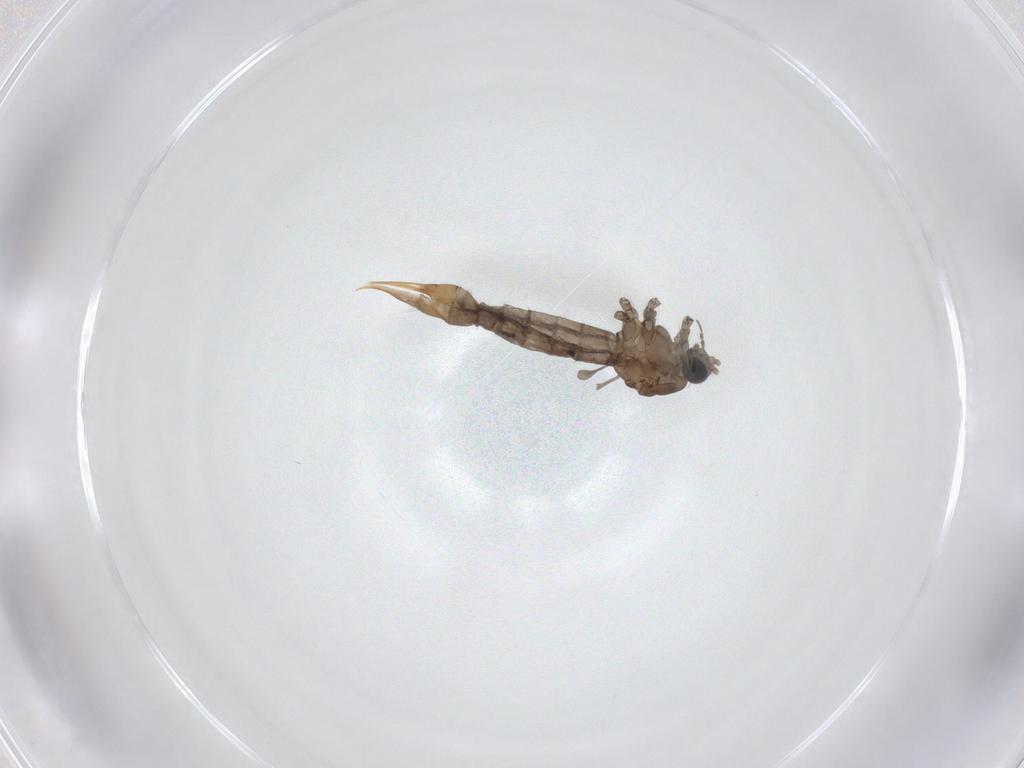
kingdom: Animalia
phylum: Arthropoda
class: Insecta
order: Diptera
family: Limoniidae
